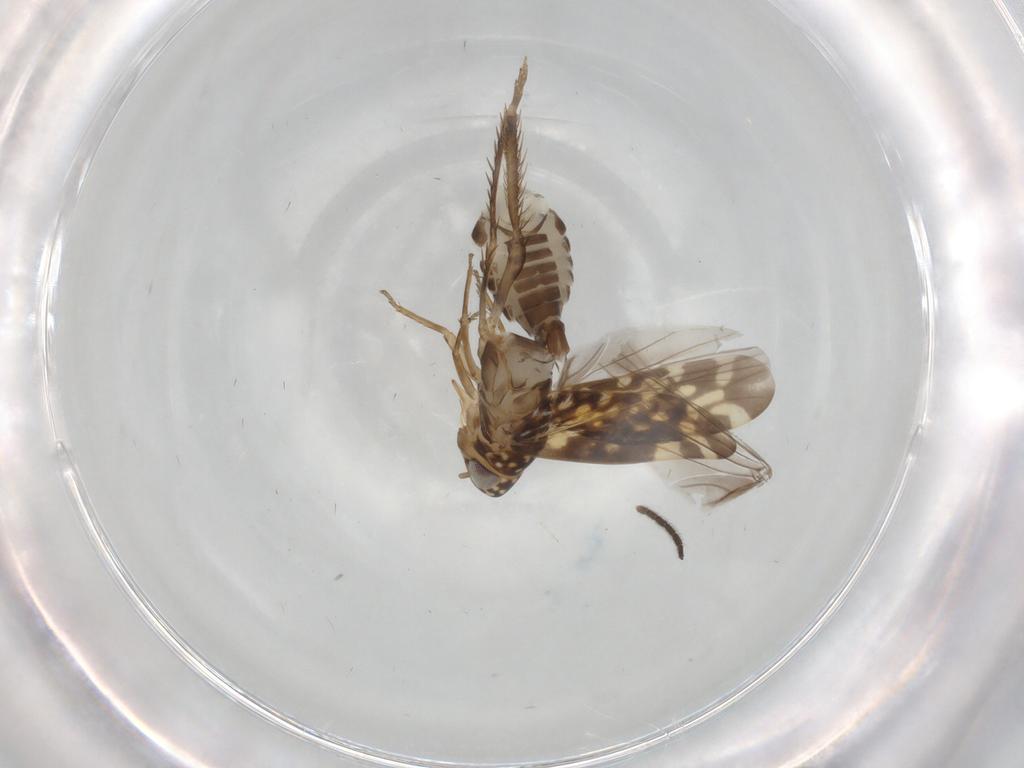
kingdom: Animalia
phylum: Arthropoda
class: Insecta
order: Hemiptera
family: Cicadellidae
